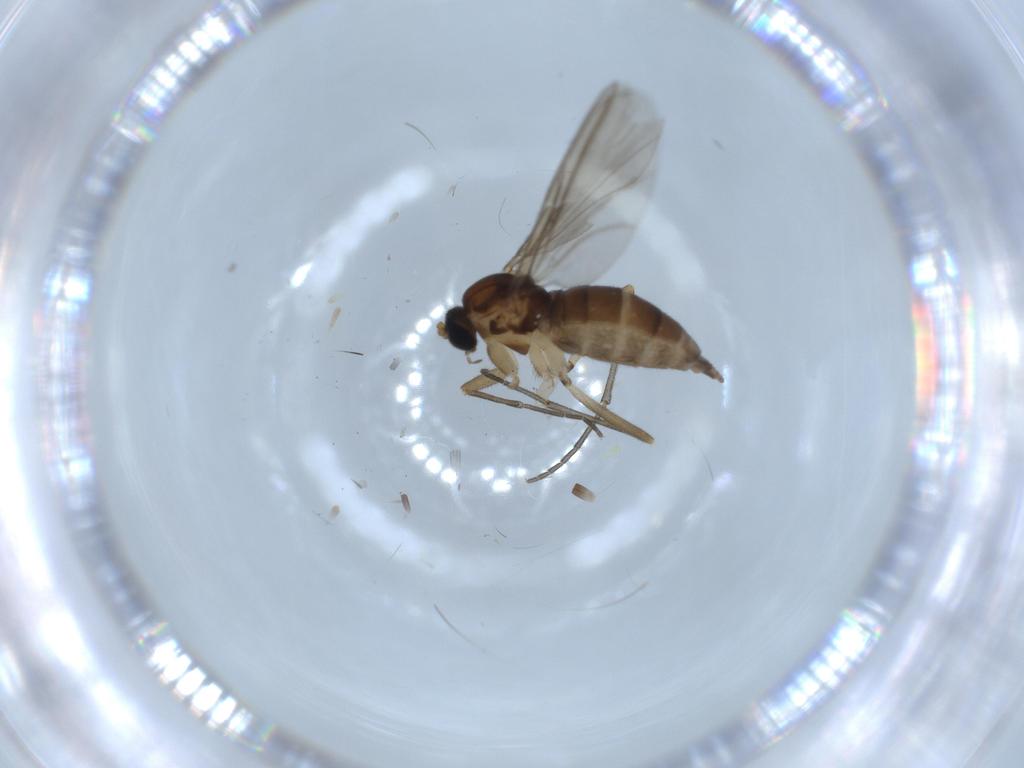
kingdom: Animalia
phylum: Arthropoda
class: Insecta
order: Diptera
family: Sciaridae
